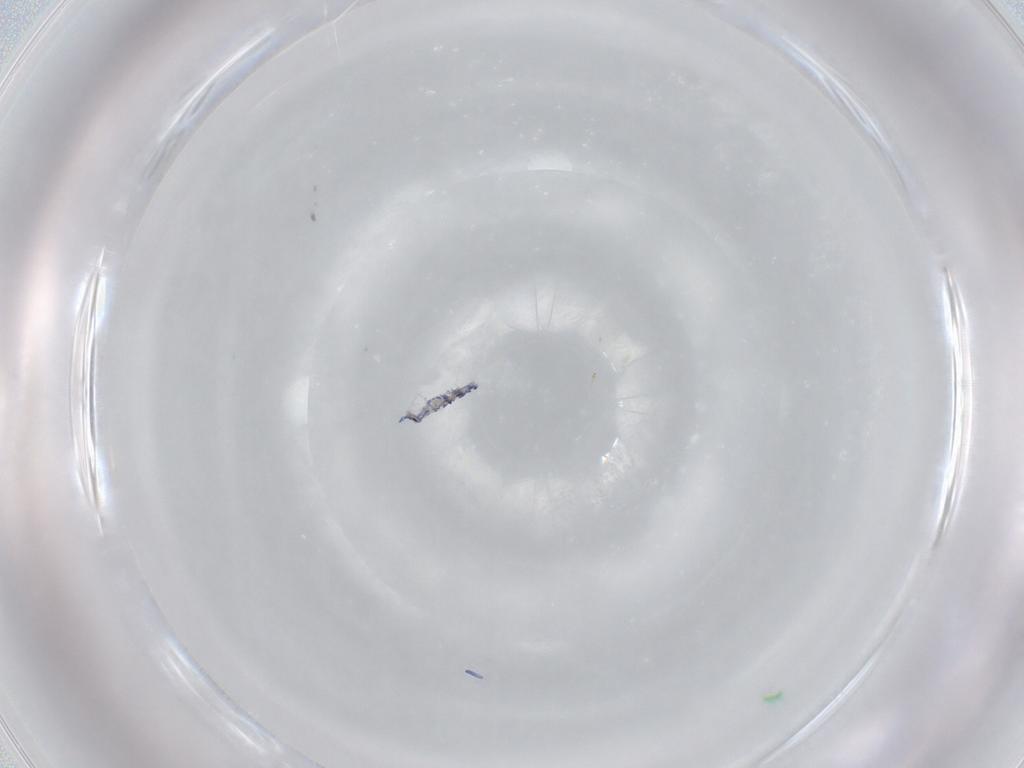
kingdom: Animalia
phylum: Arthropoda
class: Collembola
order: Entomobryomorpha
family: Entomobryidae
